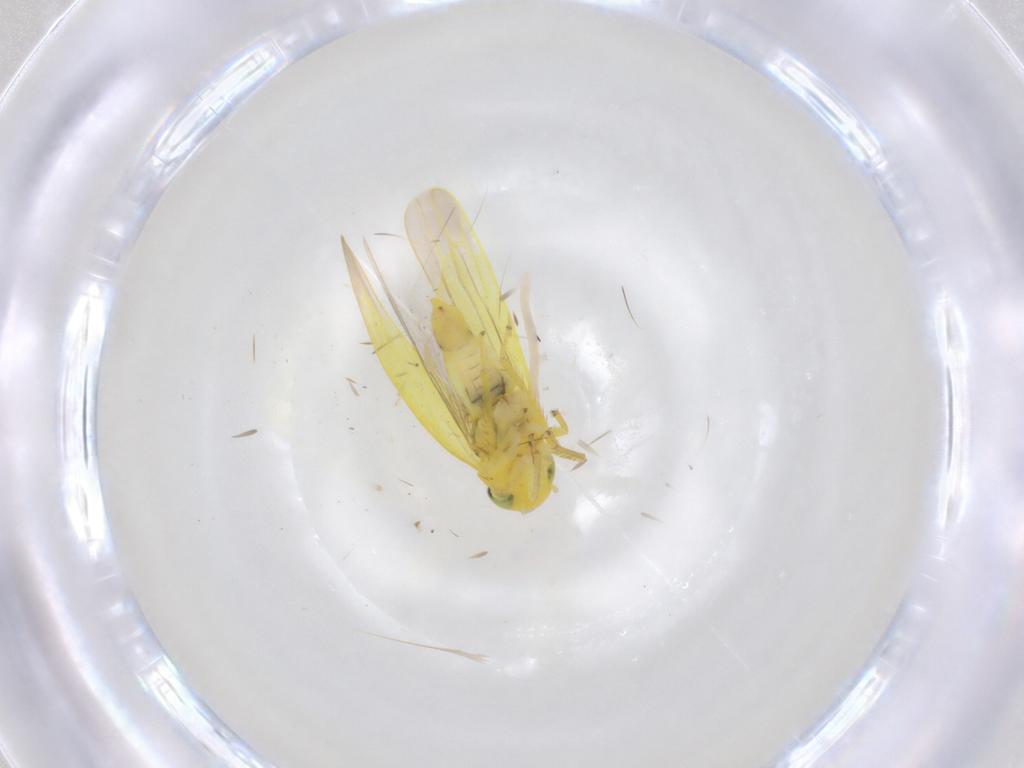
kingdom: Animalia
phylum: Arthropoda
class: Insecta
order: Hemiptera
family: Cicadellidae
